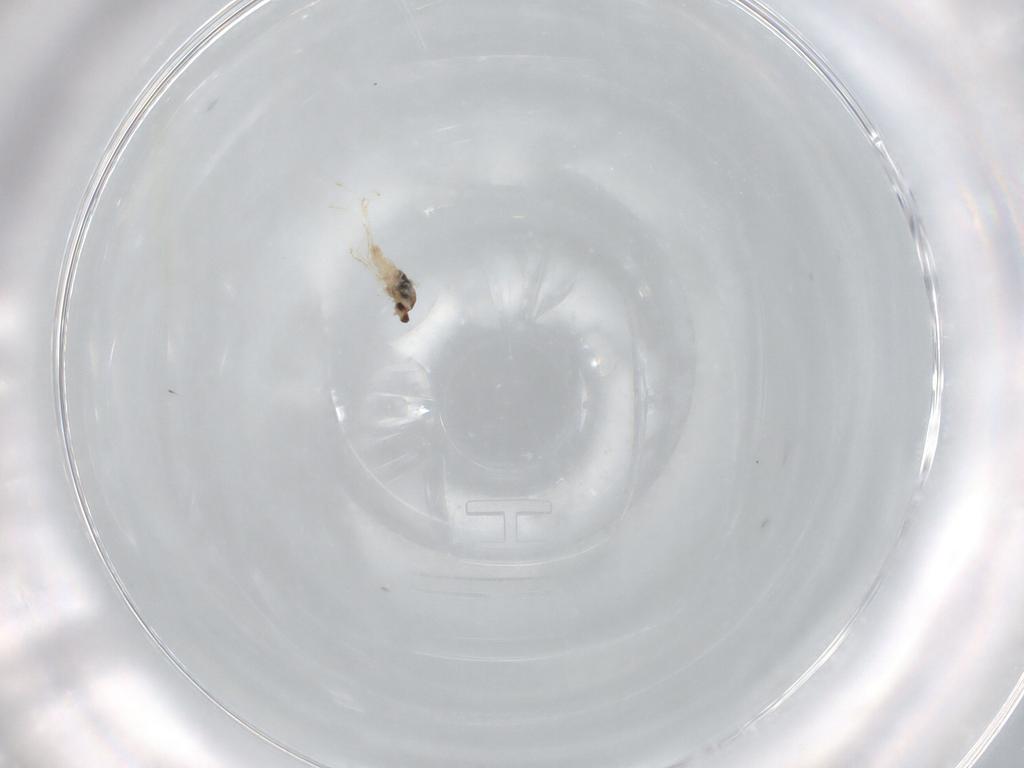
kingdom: Animalia
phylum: Arthropoda
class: Insecta
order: Diptera
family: Cecidomyiidae
